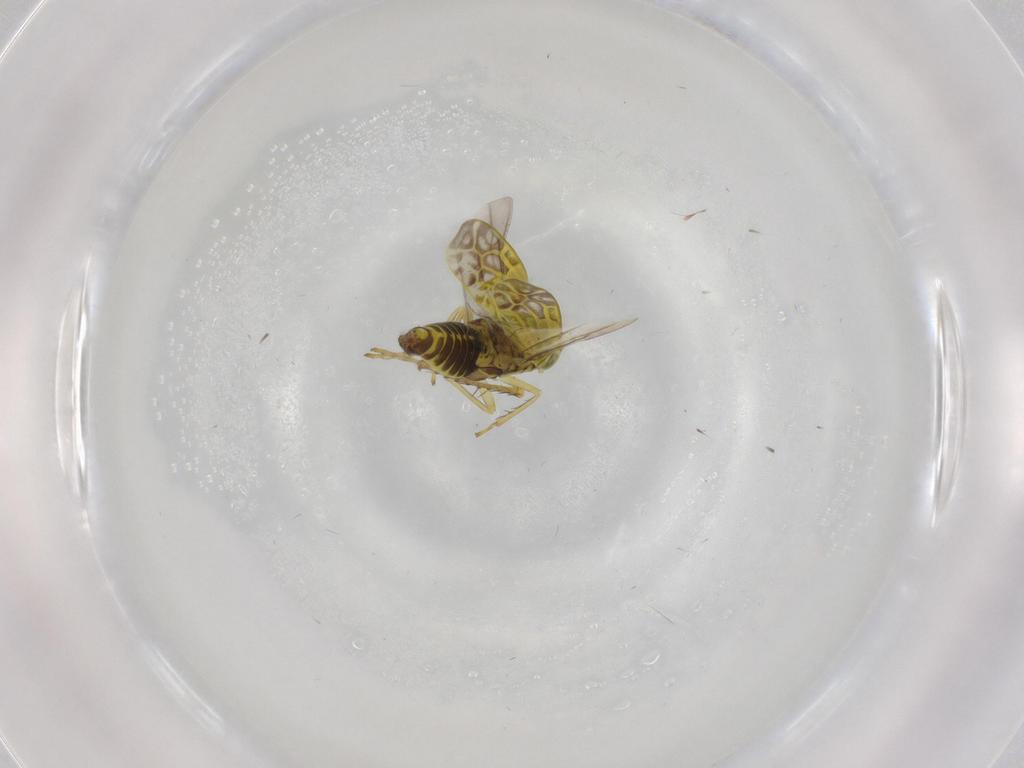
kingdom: Animalia
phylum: Arthropoda
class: Insecta
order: Hemiptera
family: Cicadellidae
